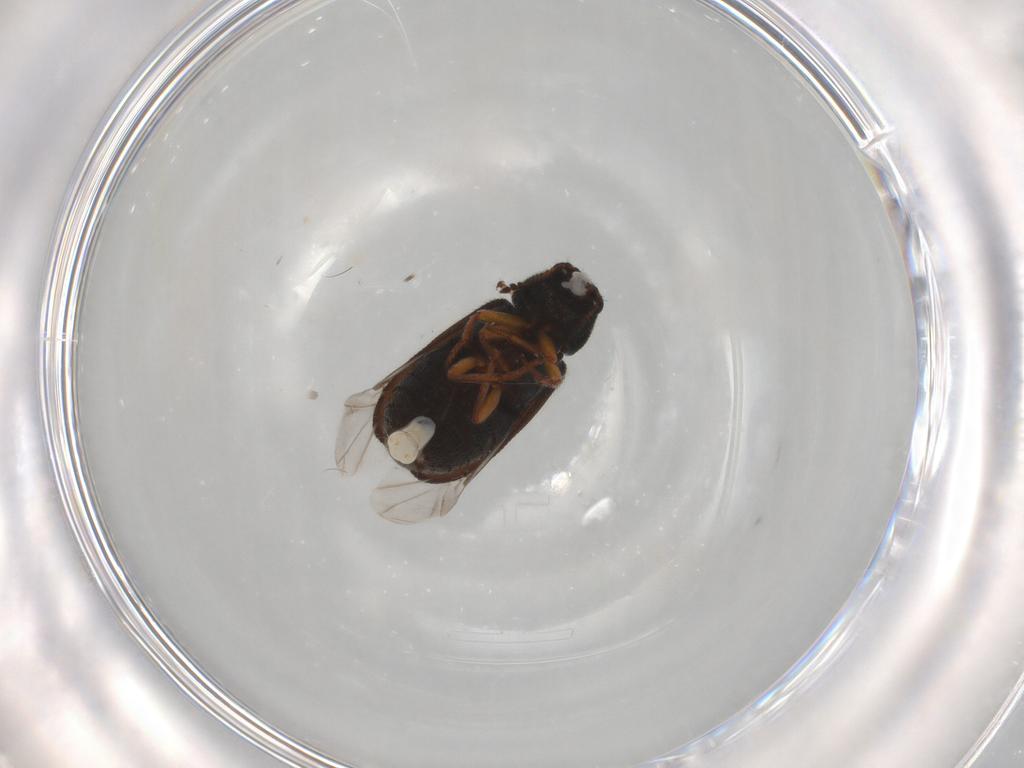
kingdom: Animalia
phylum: Arthropoda
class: Insecta
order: Coleoptera
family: Melyridae
